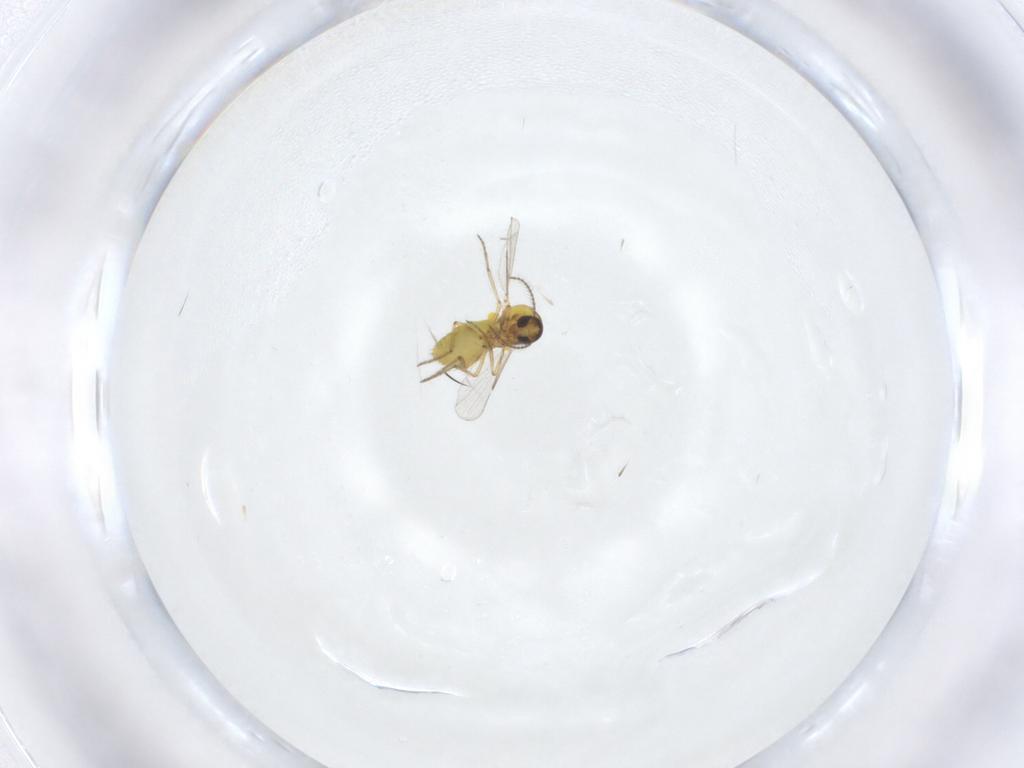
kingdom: Animalia
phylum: Arthropoda
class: Insecta
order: Diptera
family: Ceratopogonidae
